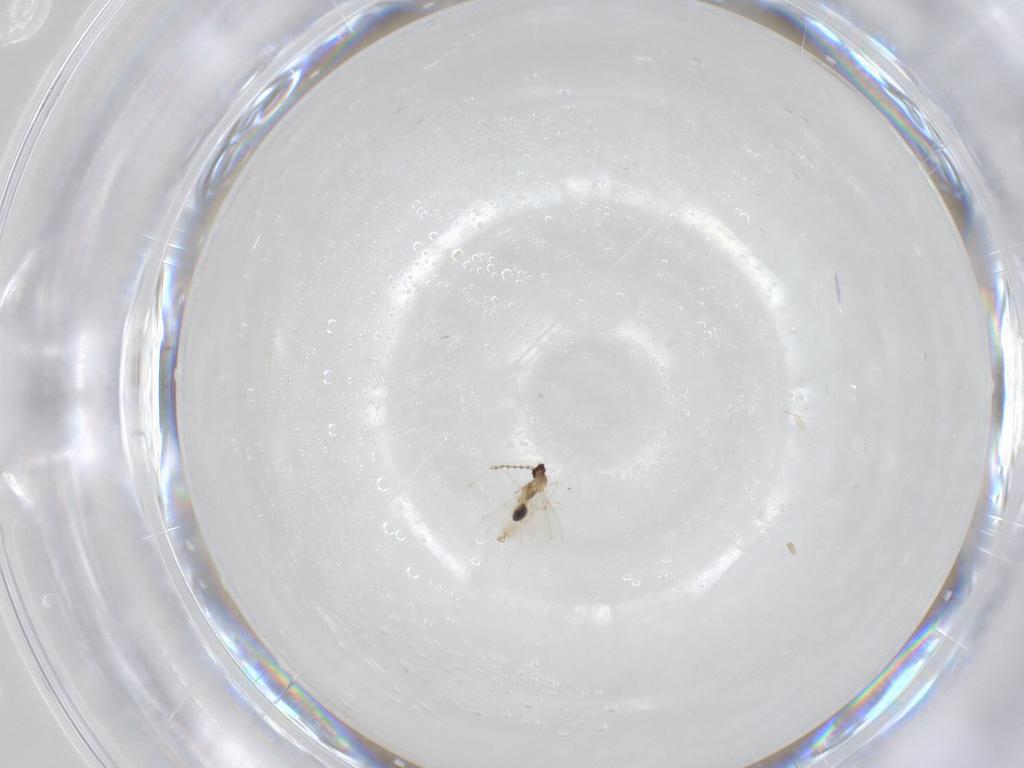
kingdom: Animalia
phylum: Arthropoda
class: Insecta
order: Diptera
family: Cecidomyiidae
